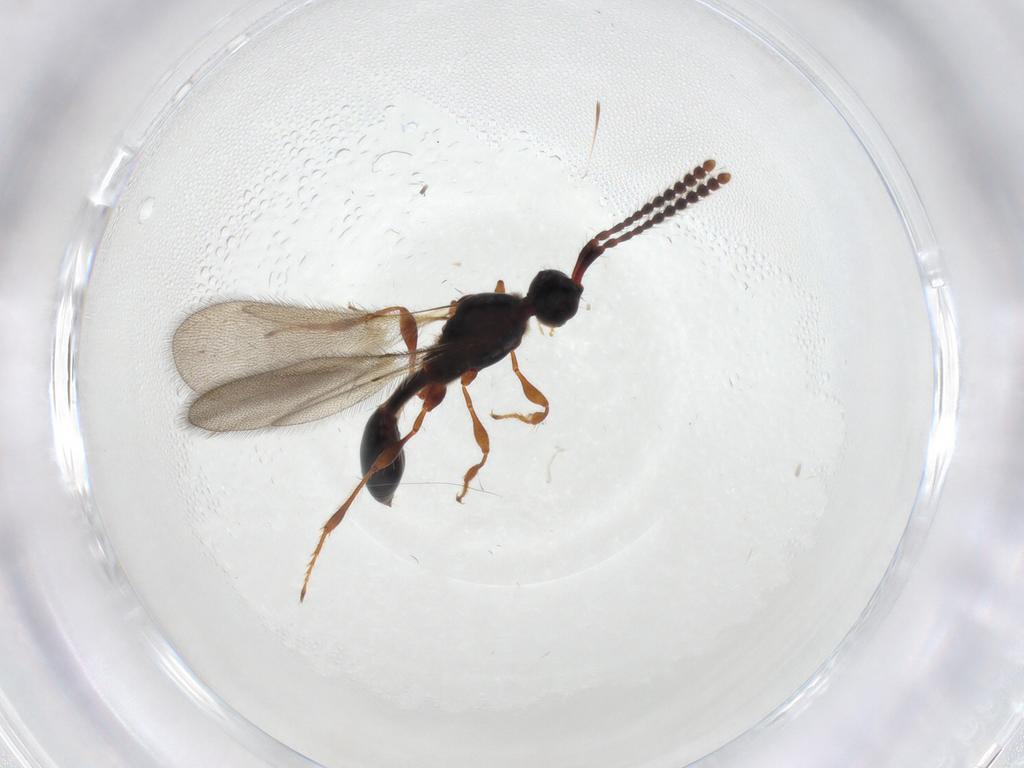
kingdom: Animalia
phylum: Arthropoda
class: Insecta
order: Hymenoptera
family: Diapriidae
